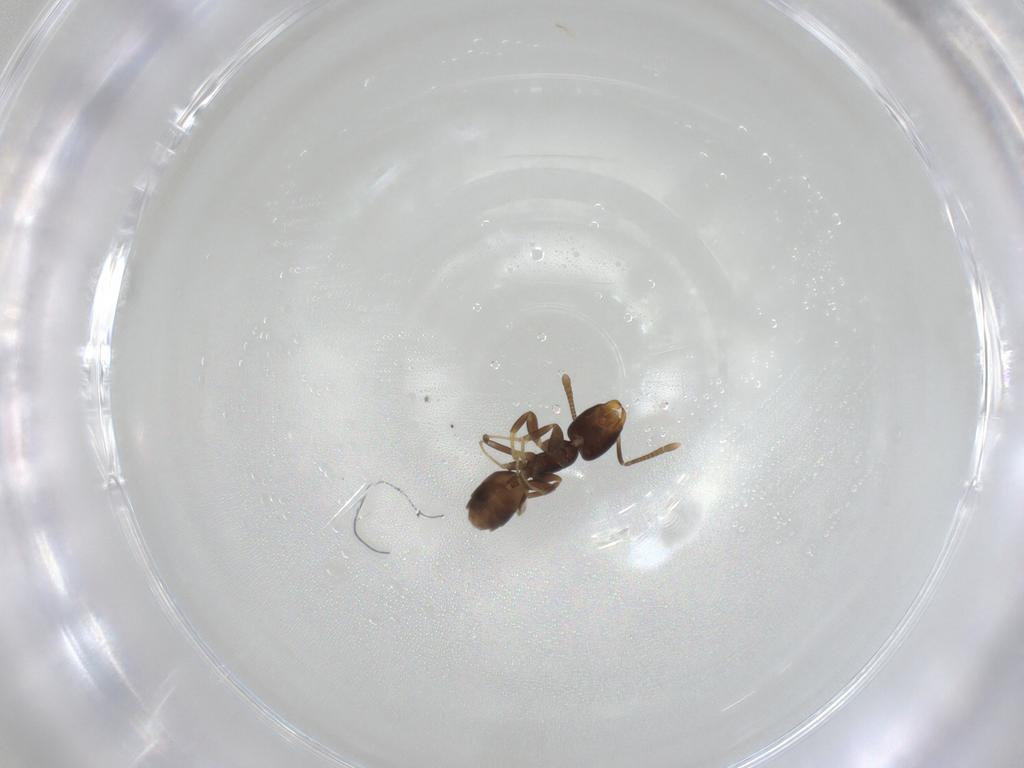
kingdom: Animalia
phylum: Arthropoda
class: Insecta
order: Hymenoptera
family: Formicidae
